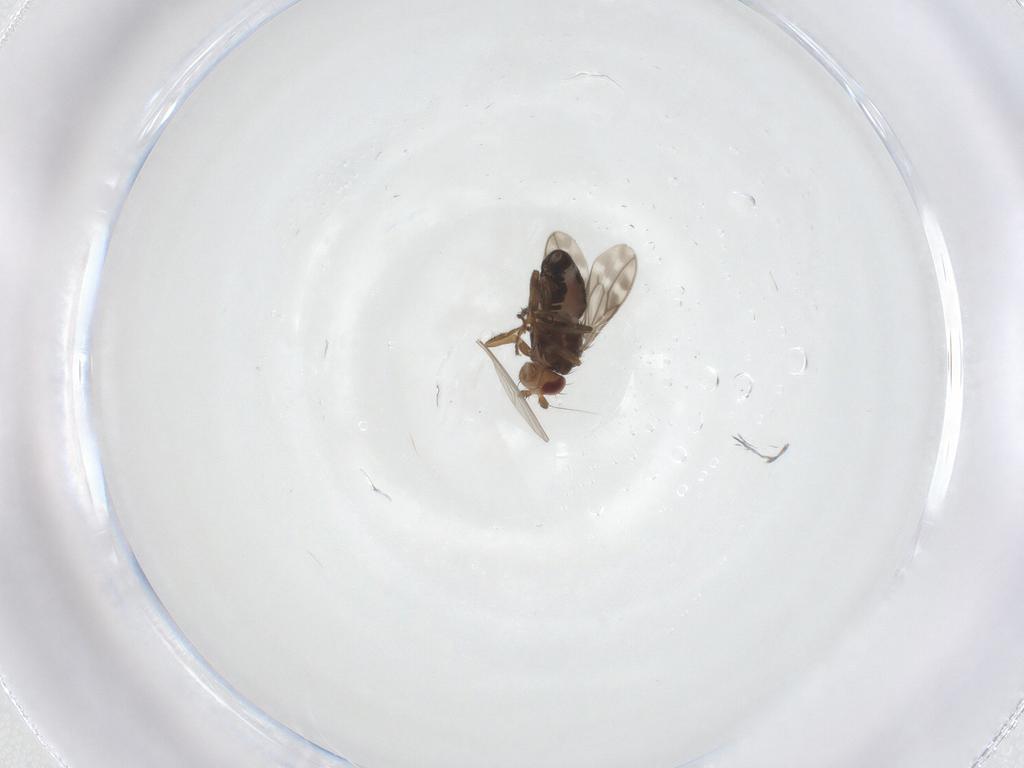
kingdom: Animalia
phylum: Arthropoda
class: Insecta
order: Diptera
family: Sphaeroceridae
